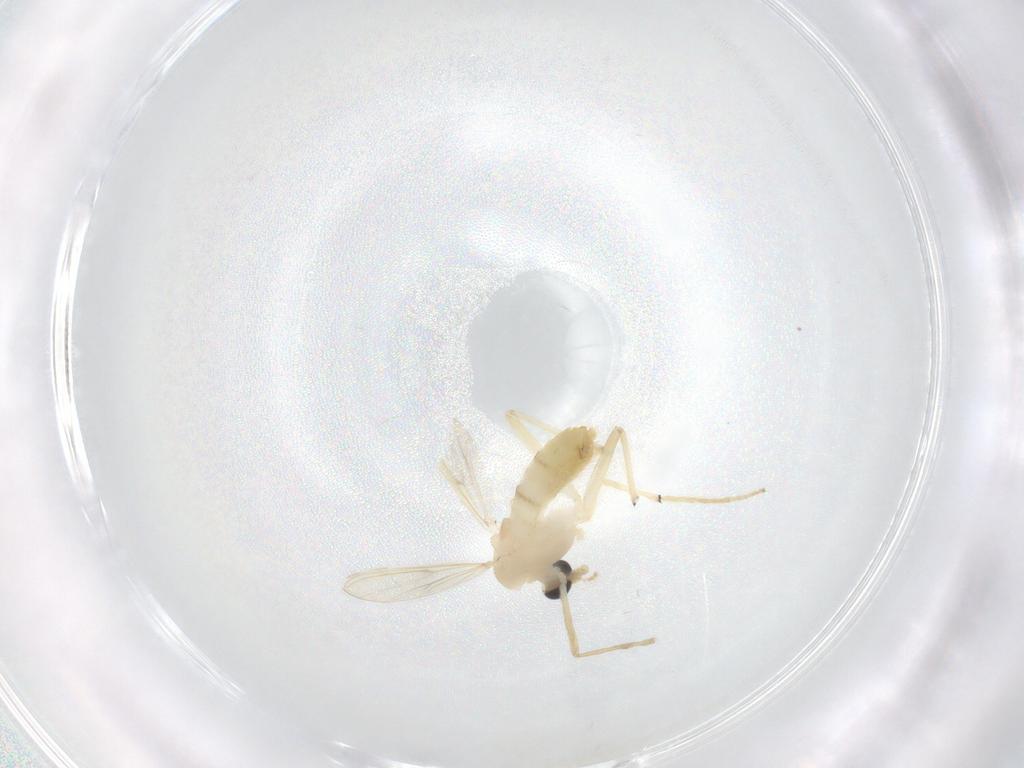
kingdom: Animalia
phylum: Arthropoda
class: Insecta
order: Diptera
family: Chironomidae
